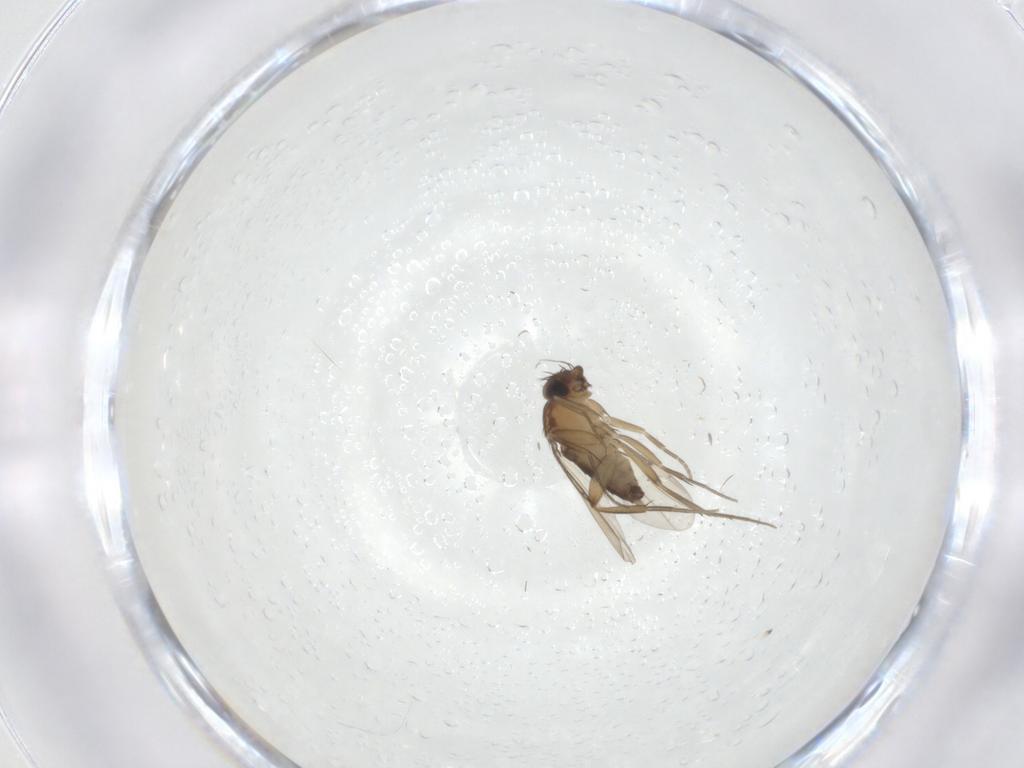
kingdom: Animalia
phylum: Arthropoda
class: Insecta
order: Diptera
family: Phoridae
